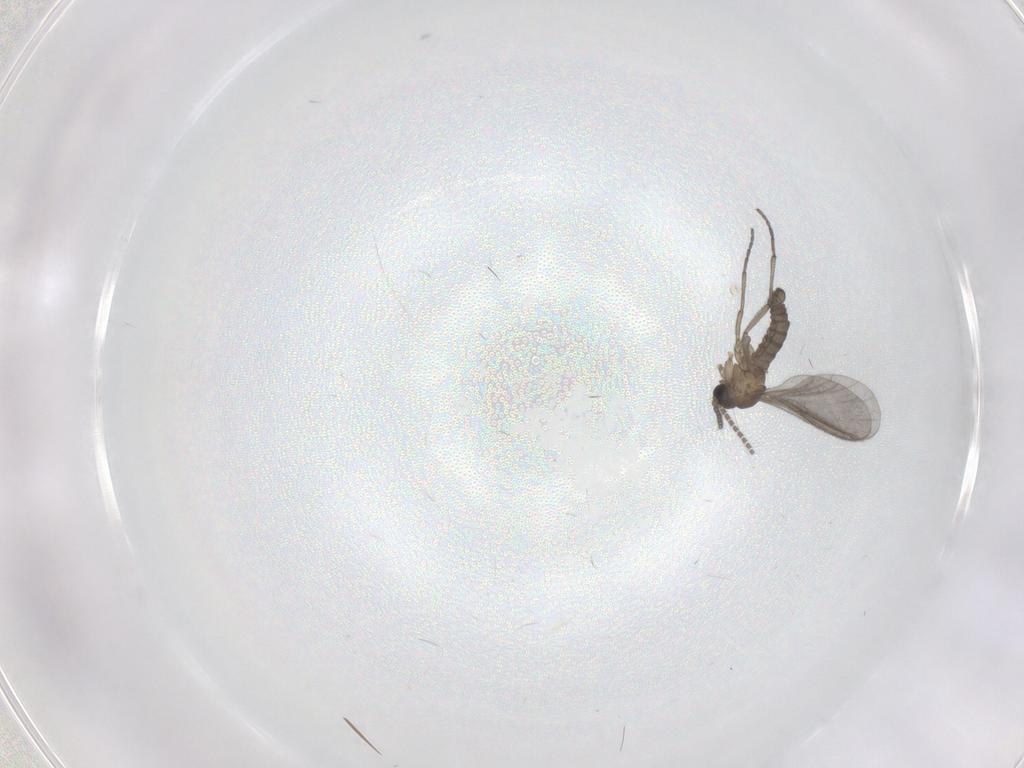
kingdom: Animalia
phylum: Arthropoda
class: Insecta
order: Diptera
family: Sciaridae
